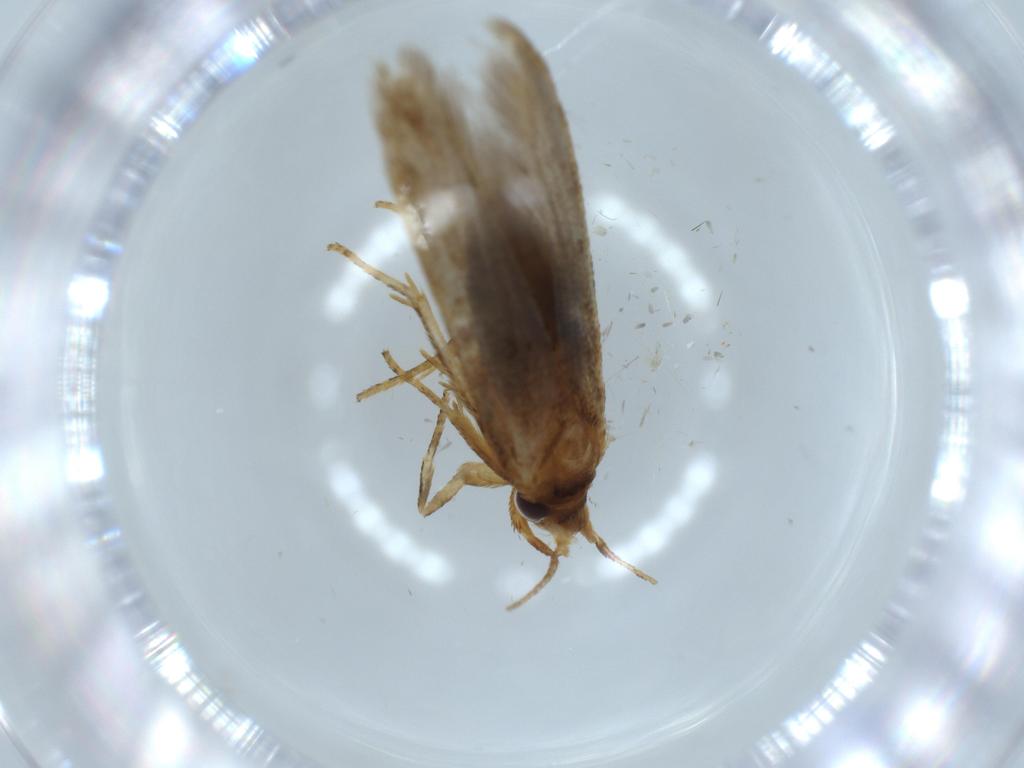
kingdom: Animalia
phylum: Arthropoda
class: Insecta
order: Lepidoptera
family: Coleophoridae
